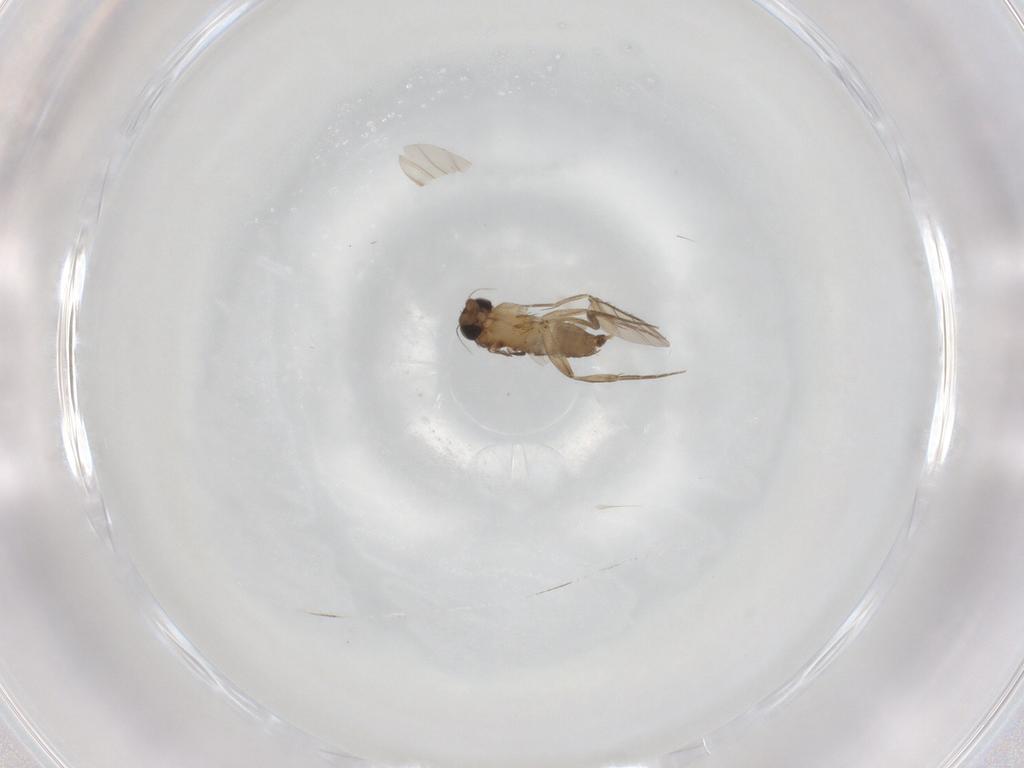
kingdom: Animalia
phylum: Arthropoda
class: Insecta
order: Diptera
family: Phoridae
